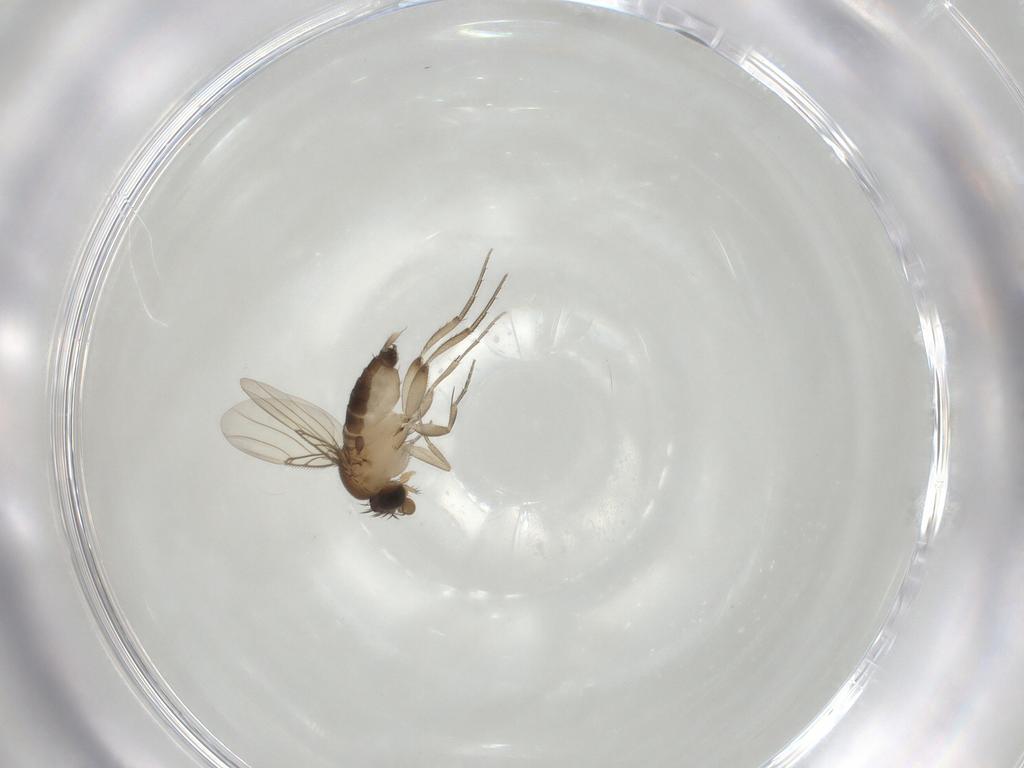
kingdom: Animalia
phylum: Arthropoda
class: Insecta
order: Diptera
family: Phoridae
